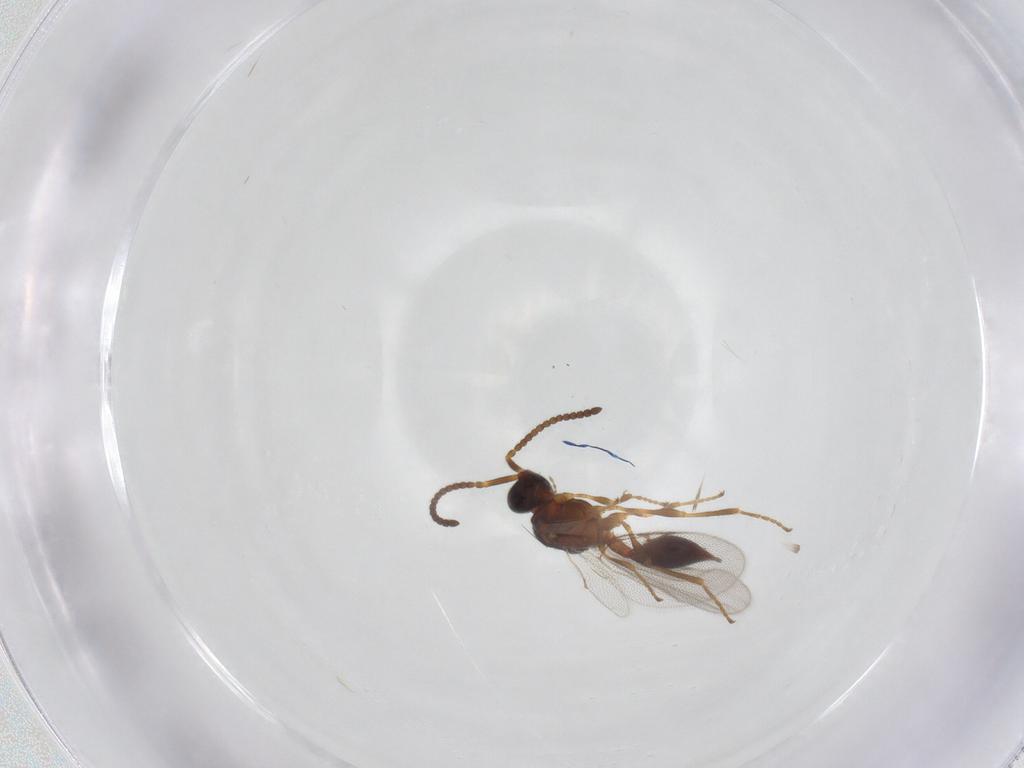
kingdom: Animalia
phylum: Arthropoda
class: Insecta
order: Hymenoptera
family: Diapriidae
